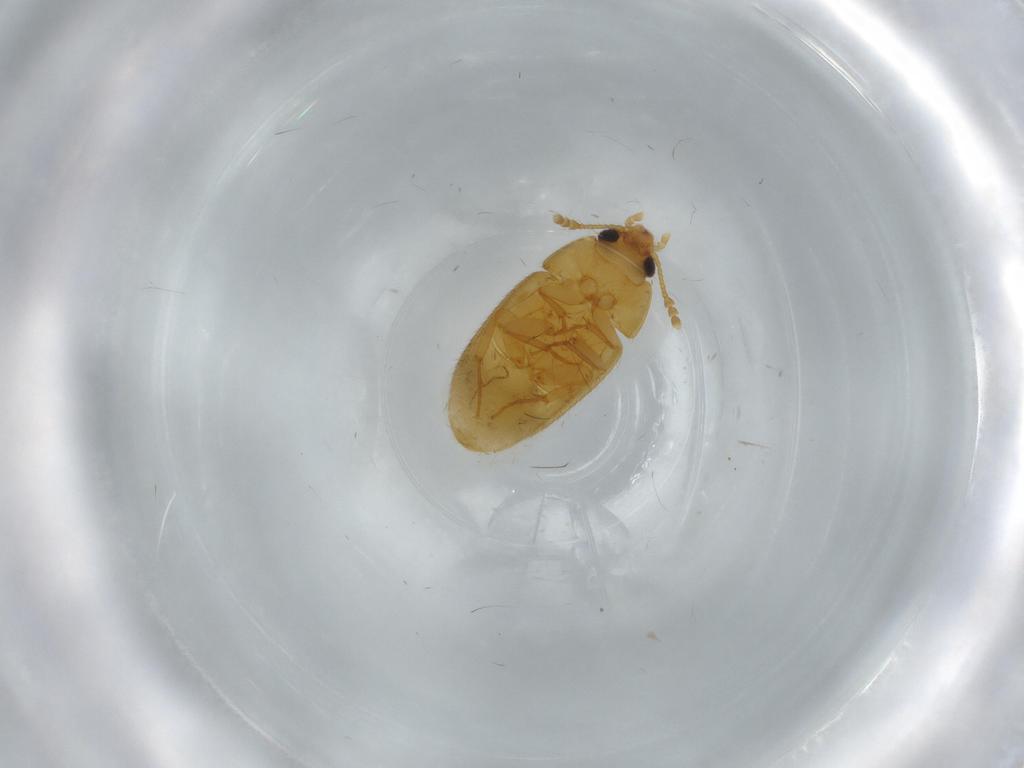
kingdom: Animalia
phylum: Arthropoda
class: Insecta
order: Coleoptera
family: Mycetophagidae
